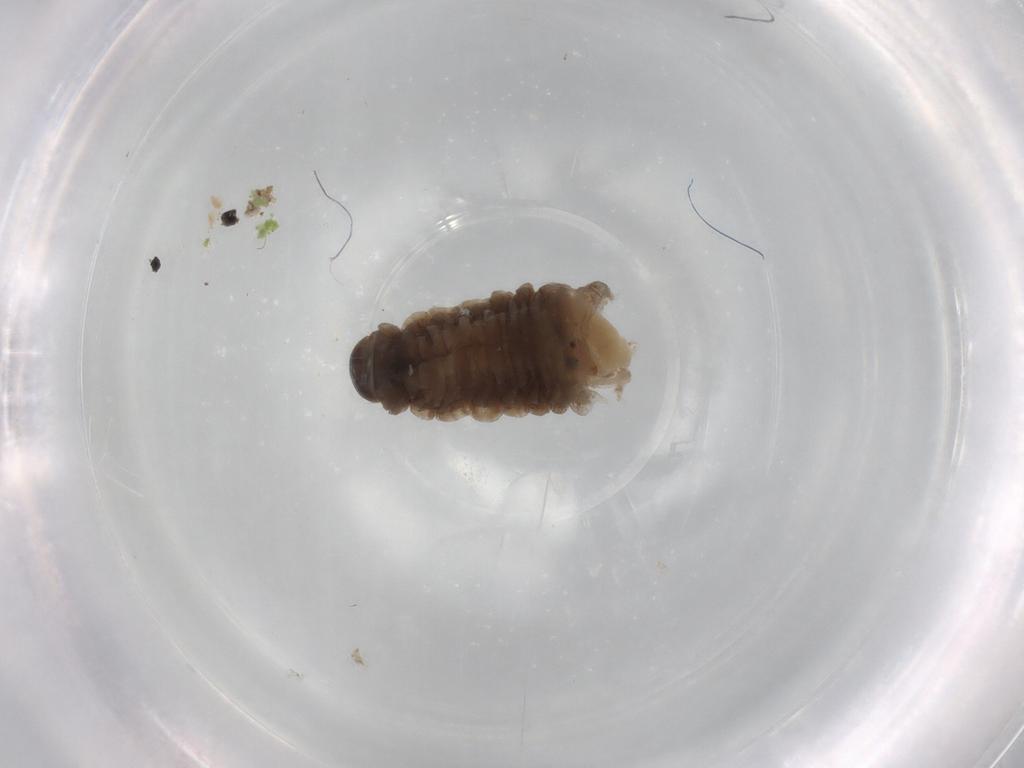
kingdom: Animalia
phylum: Arthropoda
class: Insecta
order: Lepidoptera
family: Psychidae
